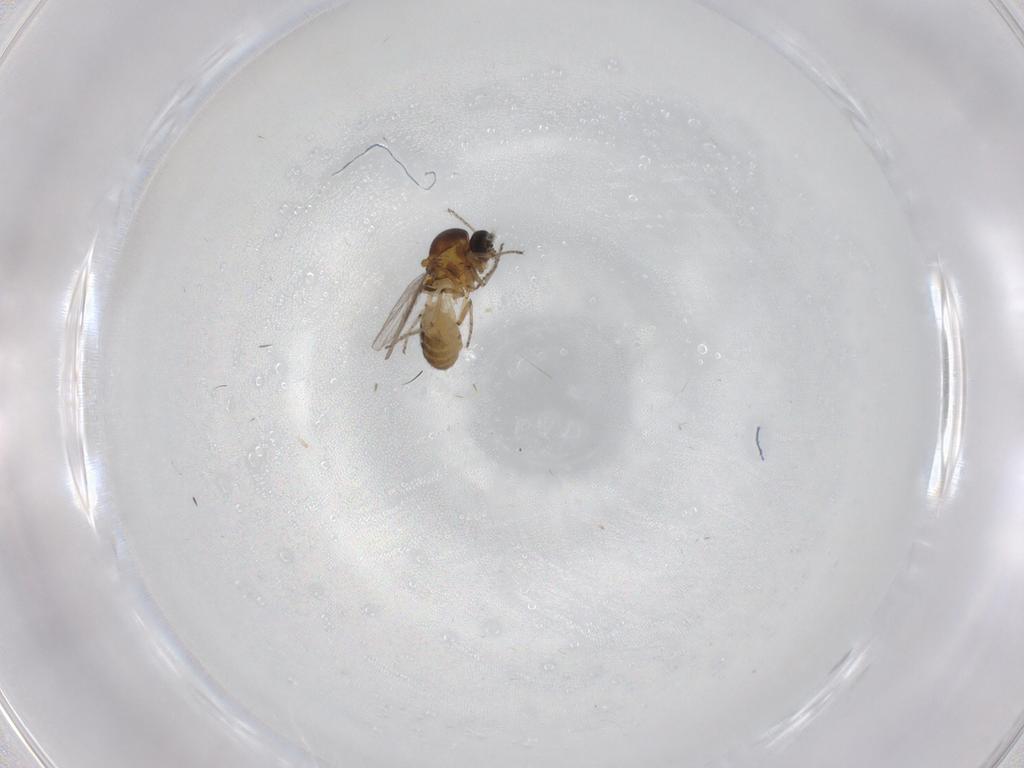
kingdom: Animalia
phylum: Arthropoda
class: Insecta
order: Diptera
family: Ceratopogonidae
